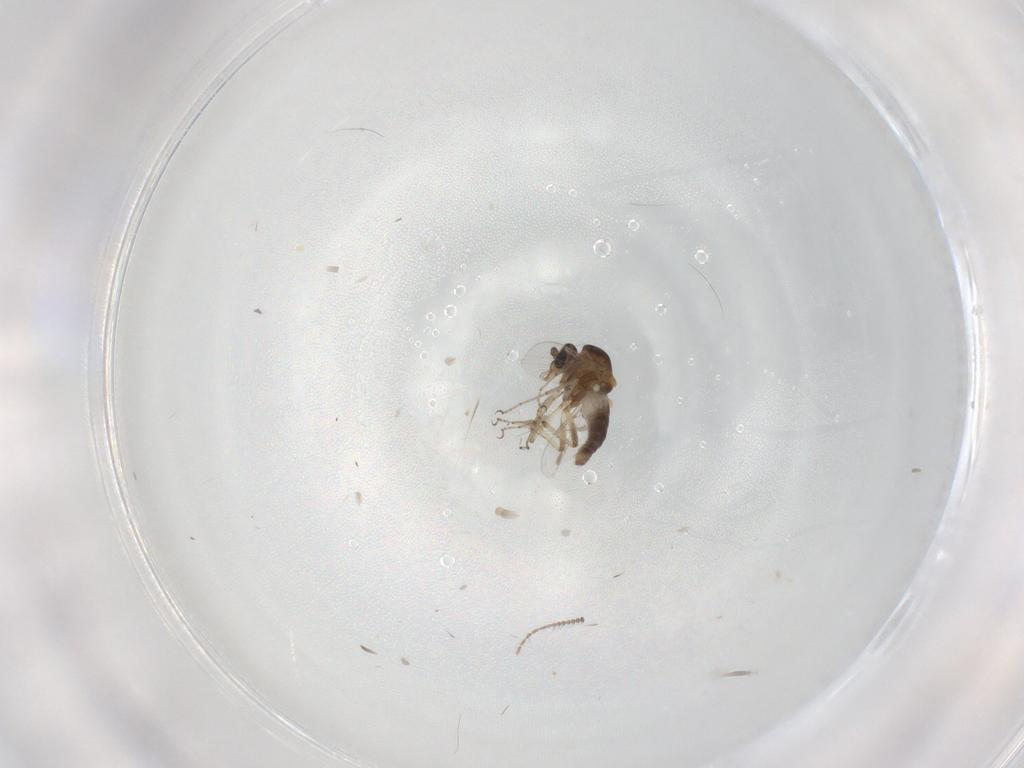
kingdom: Animalia
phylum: Arthropoda
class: Insecta
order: Diptera
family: Ceratopogonidae
